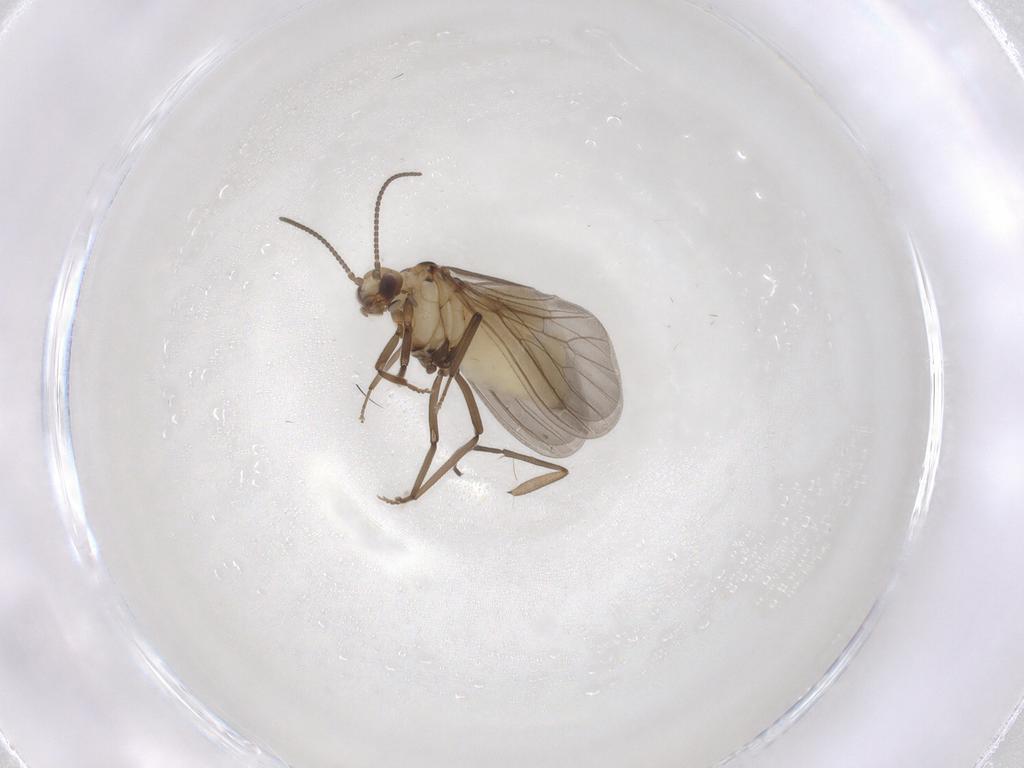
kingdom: Animalia
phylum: Arthropoda
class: Insecta
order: Neuroptera
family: Coniopterygidae
